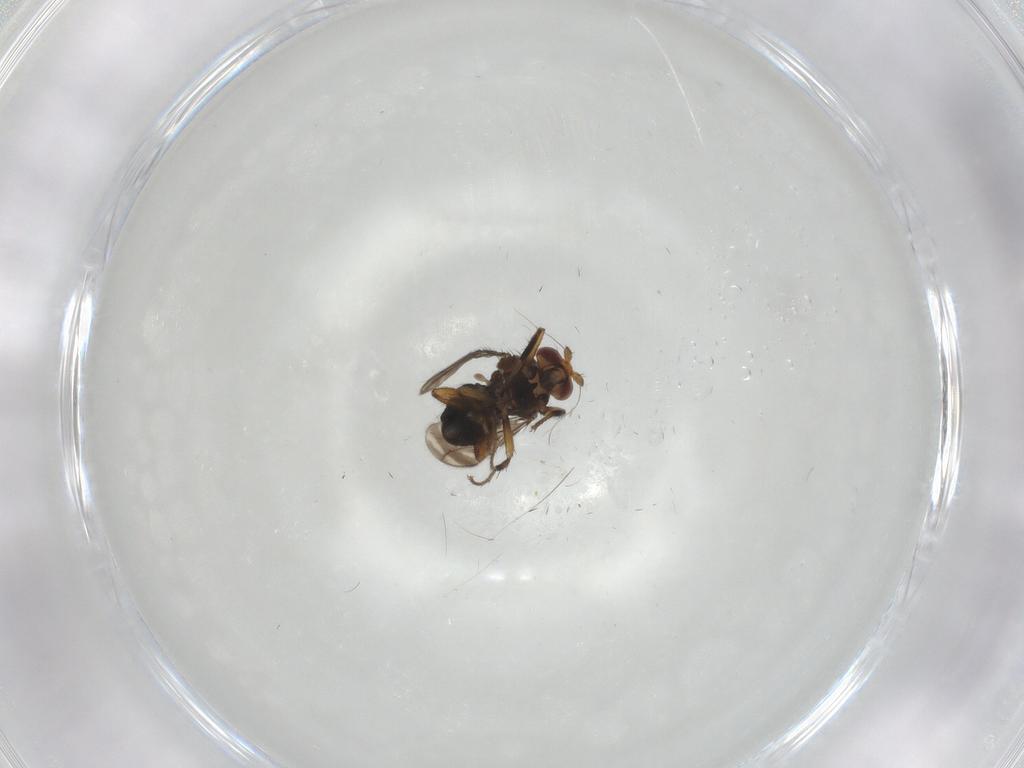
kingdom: Animalia
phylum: Arthropoda
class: Insecta
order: Diptera
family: Sphaeroceridae
